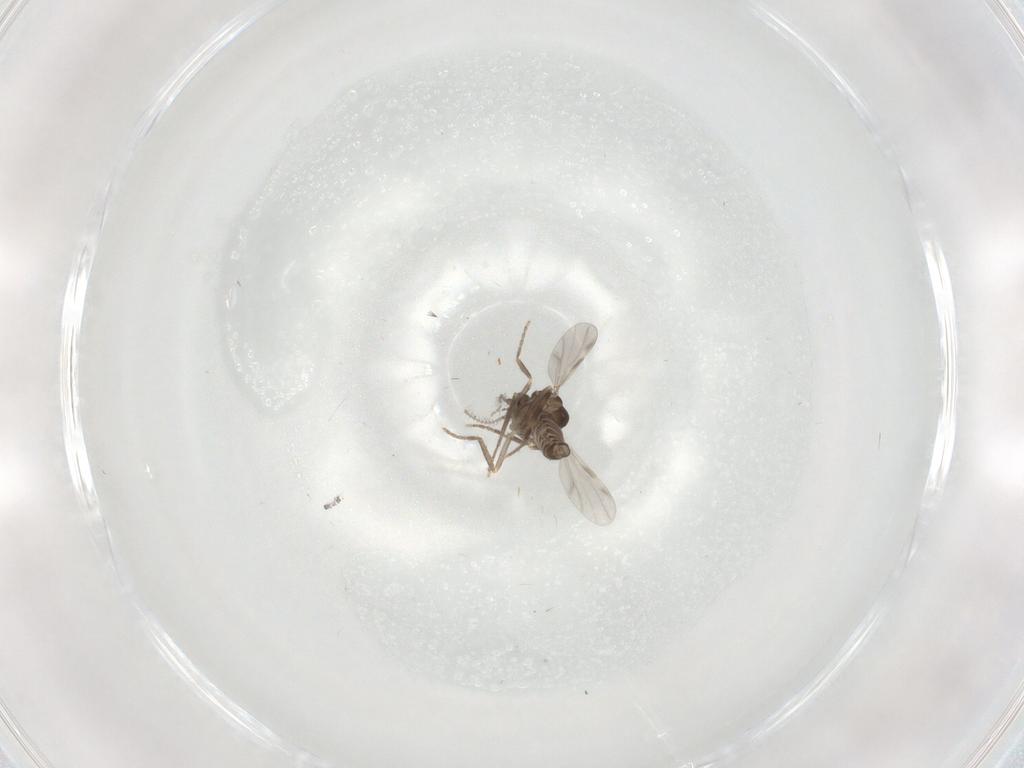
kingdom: Animalia
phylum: Arthropoda
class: Insecta
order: Diptera
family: Ceratopogonidae
